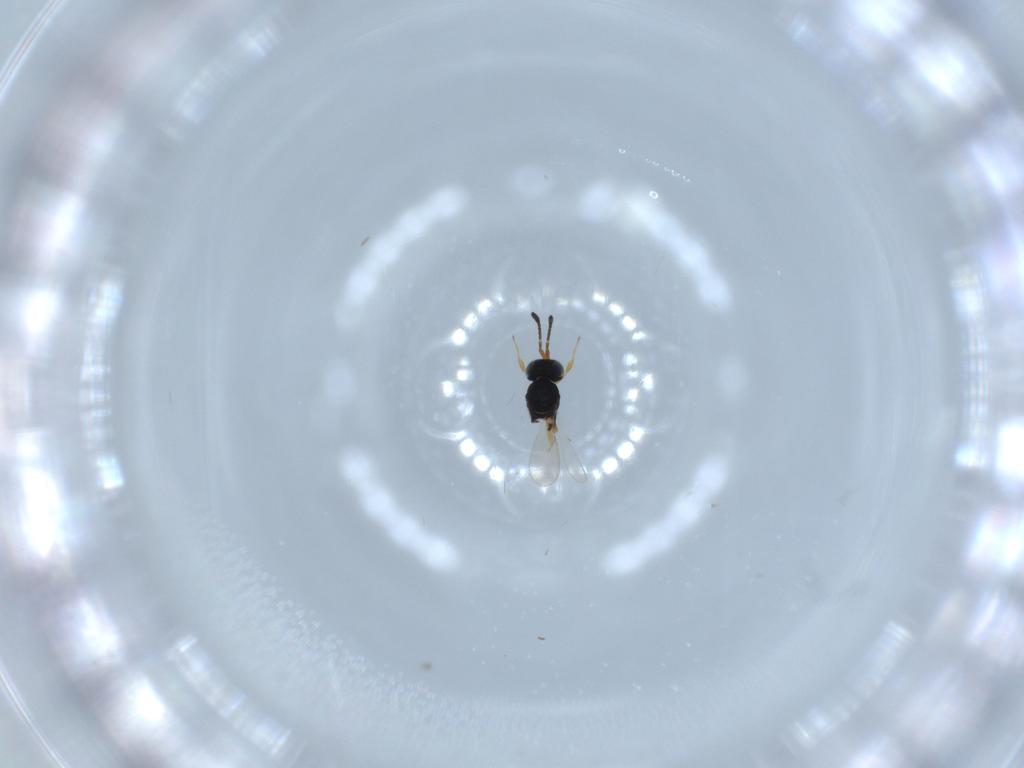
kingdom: Animalia
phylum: Arthropoda
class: Insecta
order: Hymenoptera
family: Scelionidae
